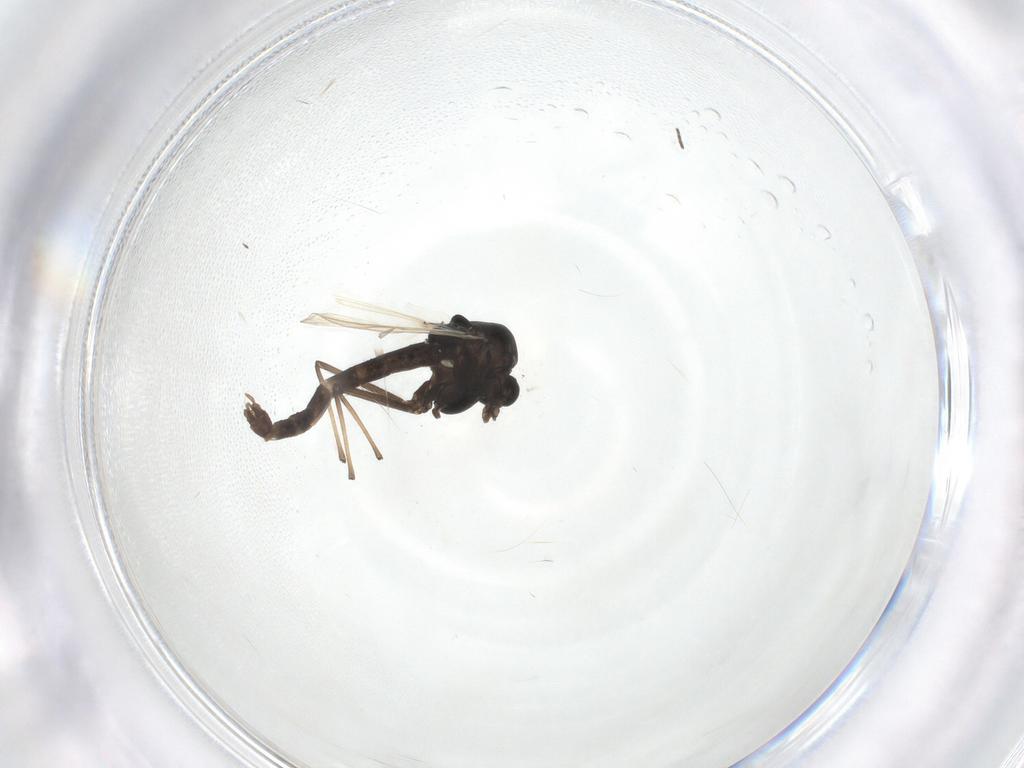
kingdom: Animalia
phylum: Arthropoda
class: Insecta
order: Diptera
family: Chironomidae
